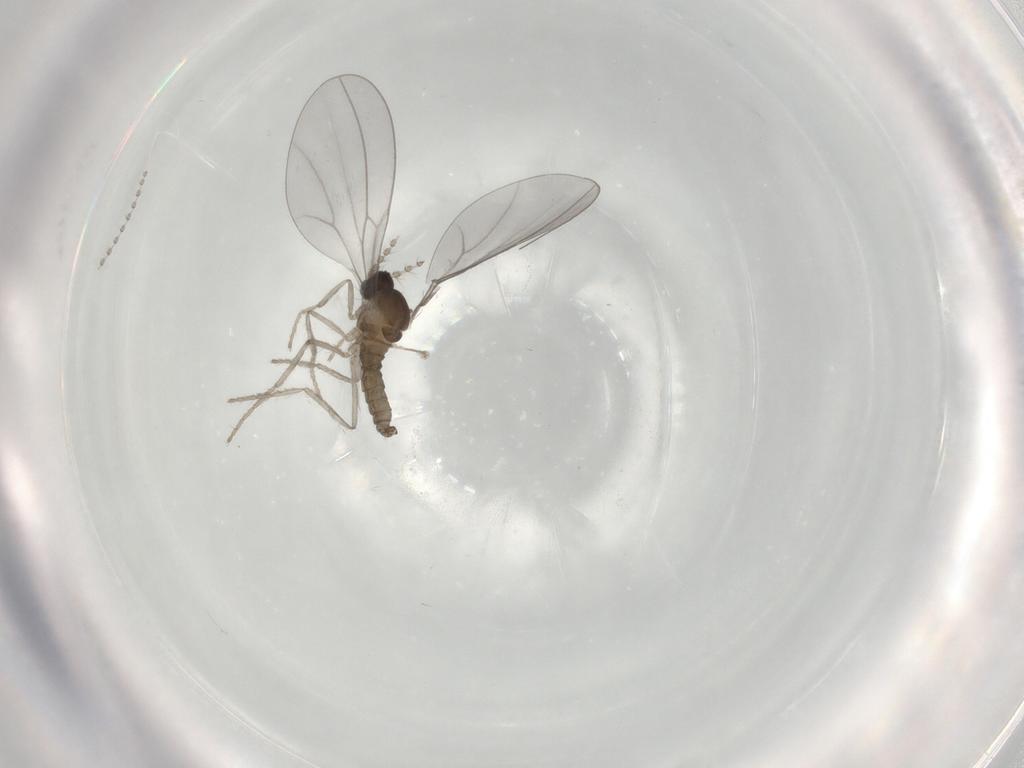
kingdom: Animalia
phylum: Arthropoda
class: Insecta
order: Diptera
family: Cecidomyiidae
